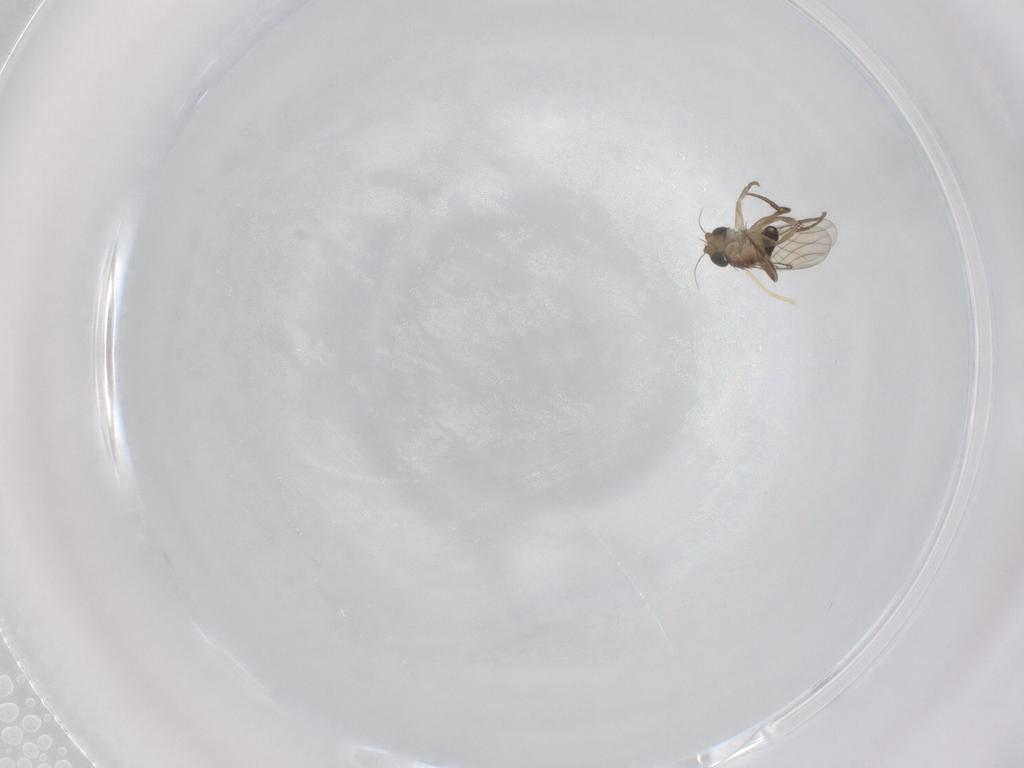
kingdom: Animalia
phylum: Arthropoda
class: Insecta
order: Diptera
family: Phoridae
